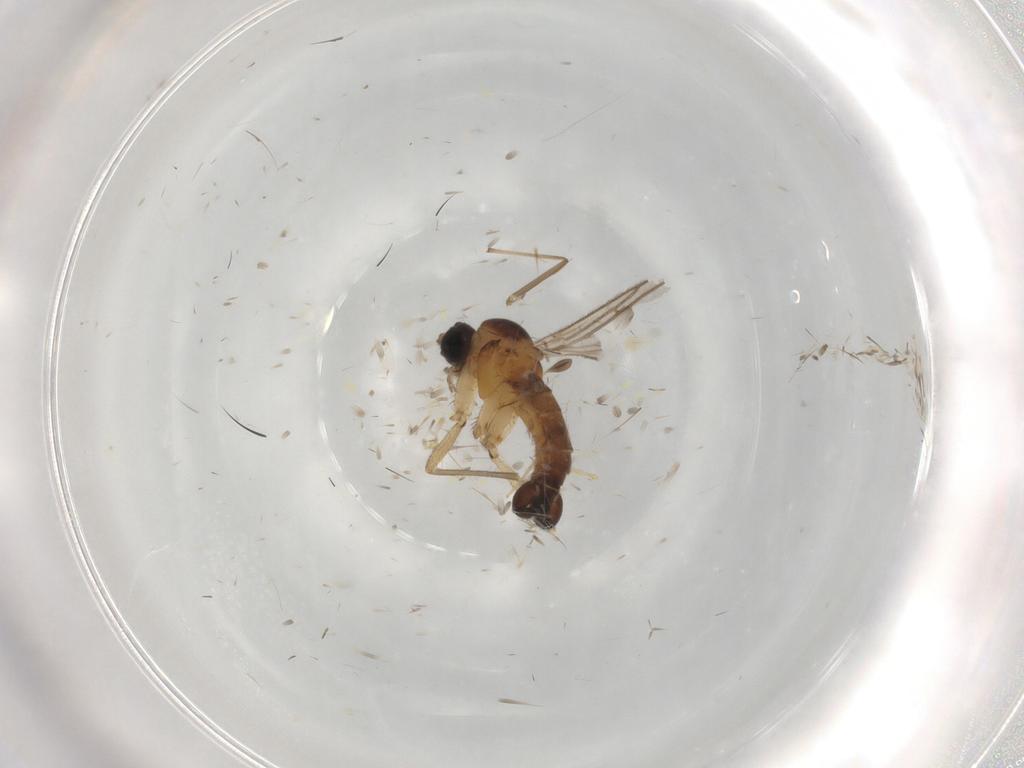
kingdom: Animalia
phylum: Arthropoda
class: Insecta
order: Diptera
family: Sciaridae
